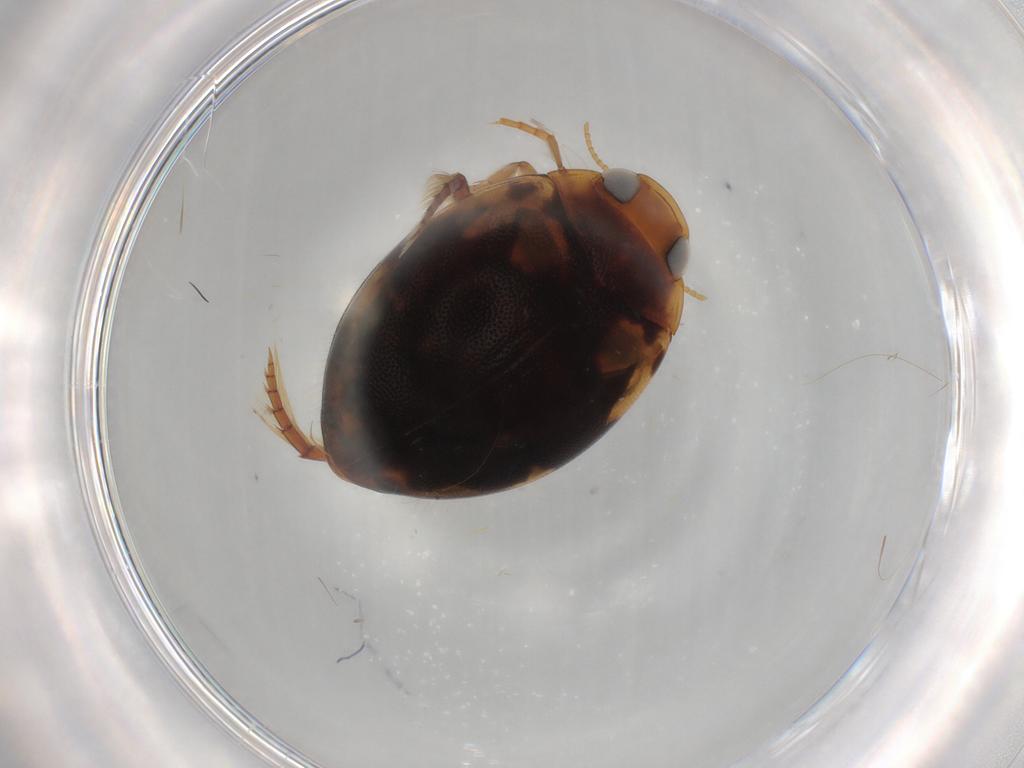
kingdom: Animalia
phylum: Arthropoda
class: Insecta
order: Coleoptera
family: Dytiscidae
